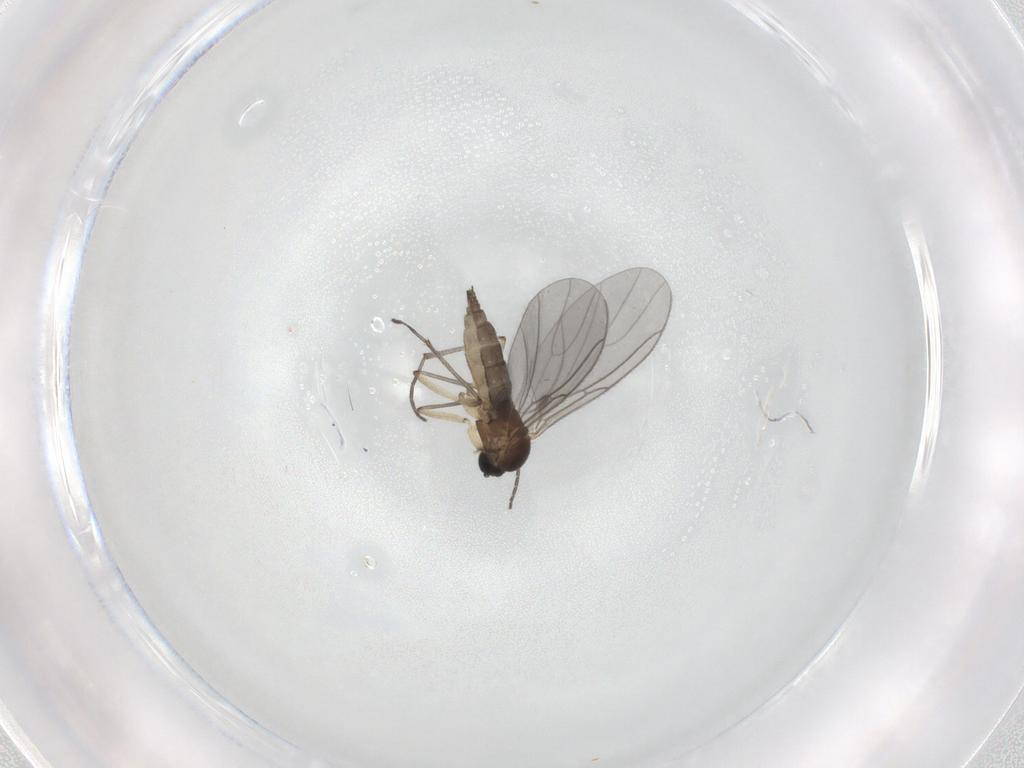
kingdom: Animalia
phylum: Arthropoda
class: Insecta
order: Diptera
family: Sciaridae
